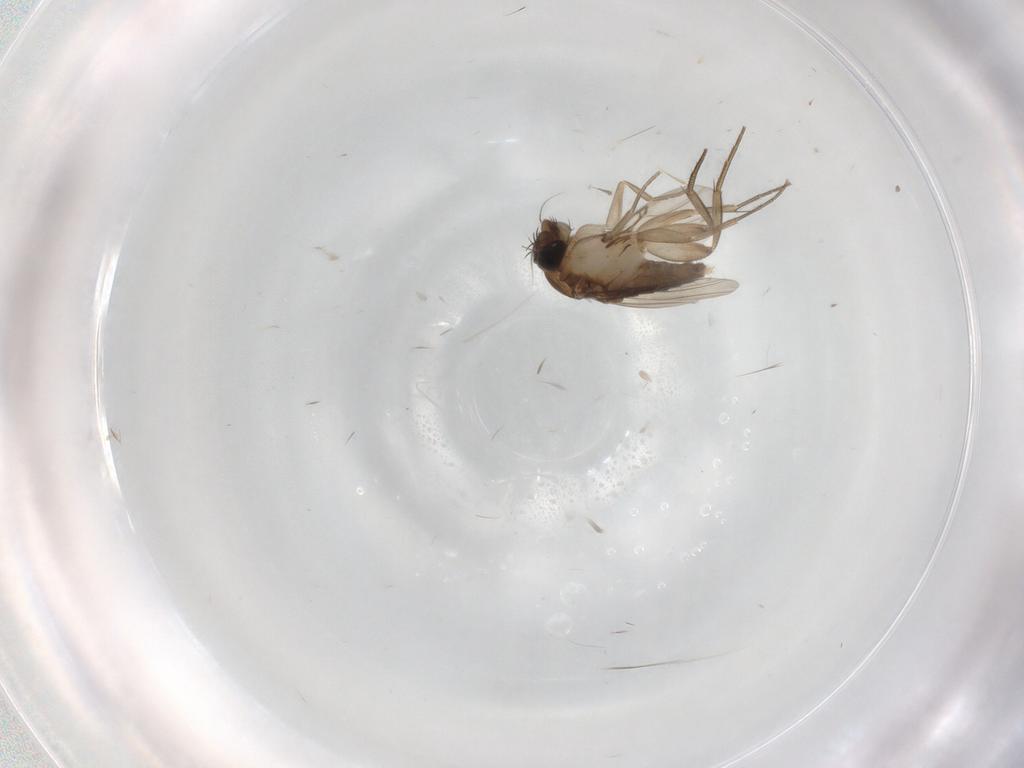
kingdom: Animalia
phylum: Arthropoda
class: Insecta
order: Diptera
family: Phoridae
